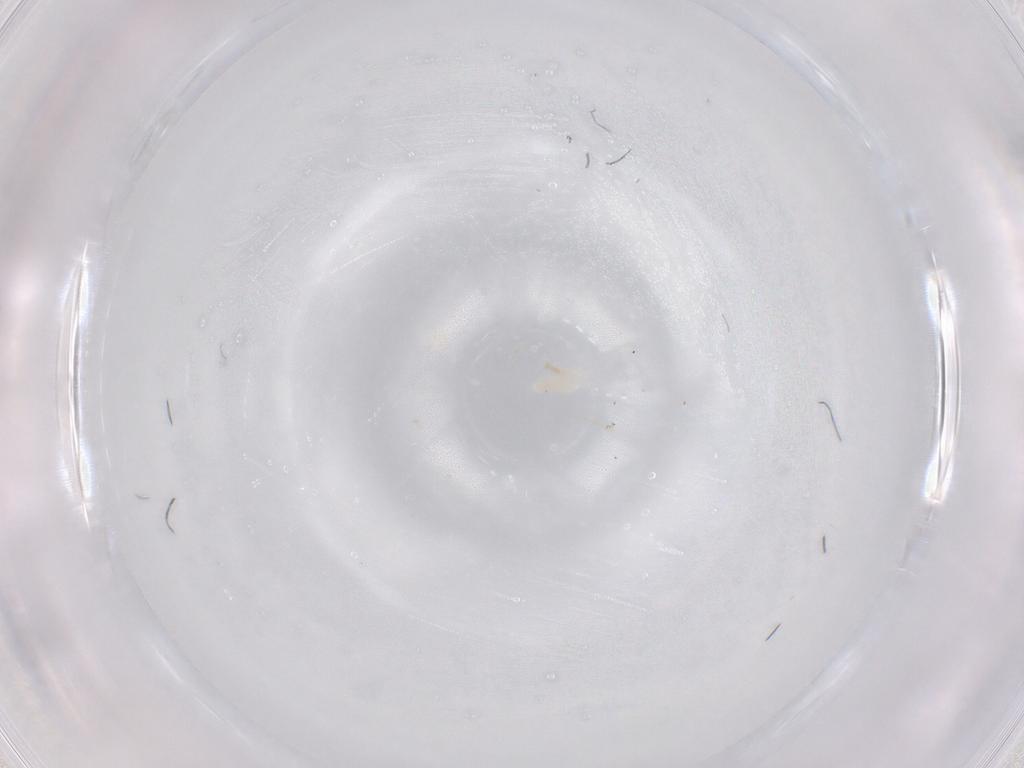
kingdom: Animalia
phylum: Arthropoda
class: Arachnida
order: Trombidiformes
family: Eupodidae
